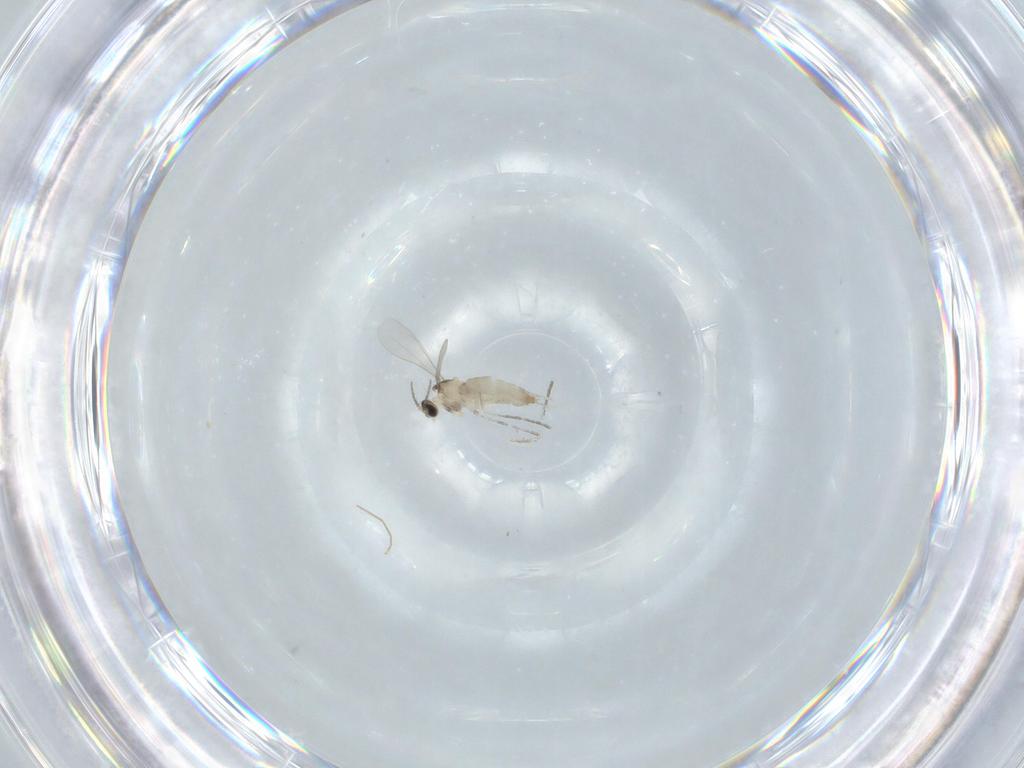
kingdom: Animalia
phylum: Arthropoda
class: Insecta
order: Diptera
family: Chironomidae
